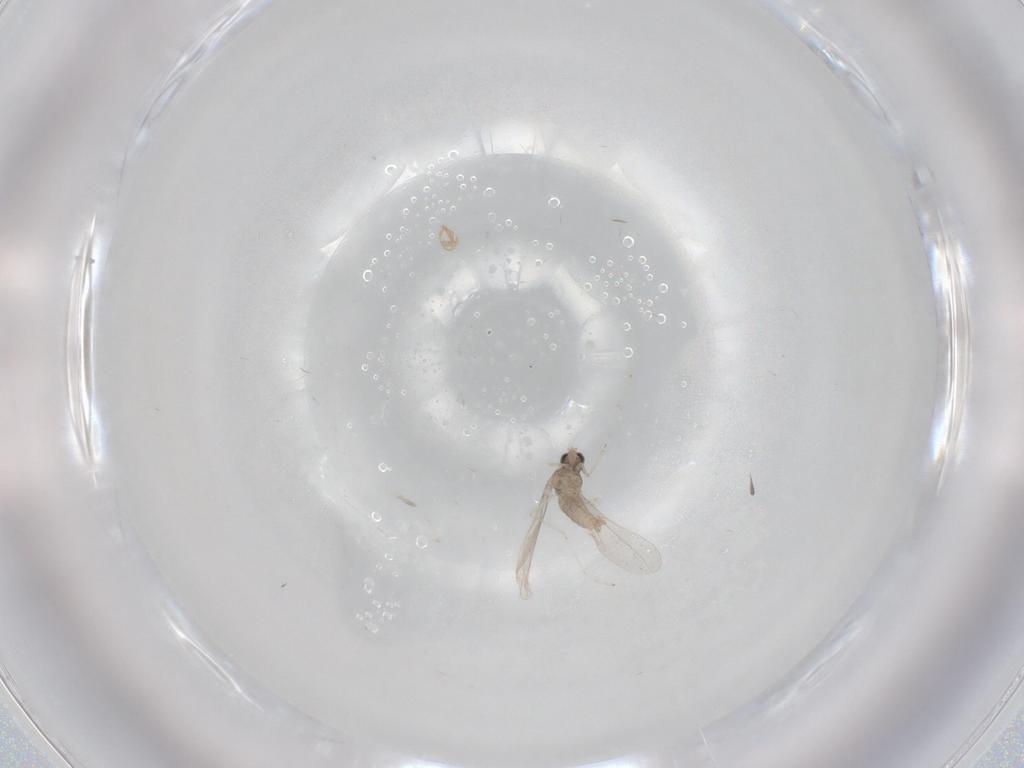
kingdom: Animalia
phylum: Arthropoda
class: Insecta
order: Diptera
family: Cecidomyiidae
